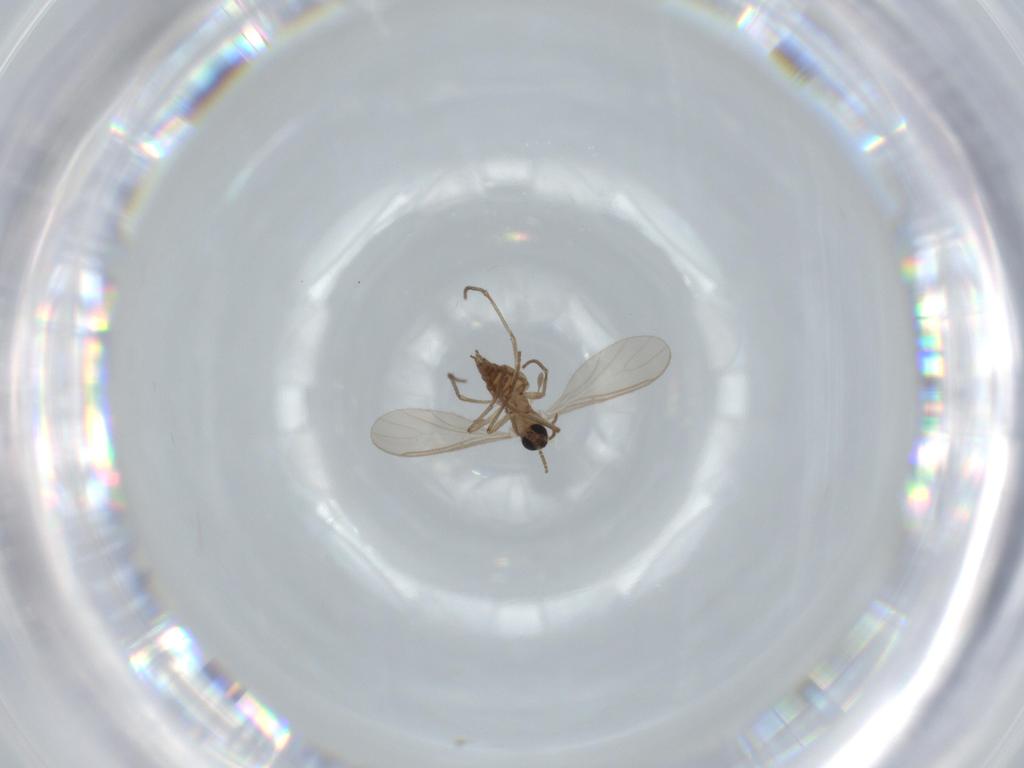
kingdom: Animalia
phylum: Arthropoda
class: Insecta
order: Diptera
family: Sciaridae
